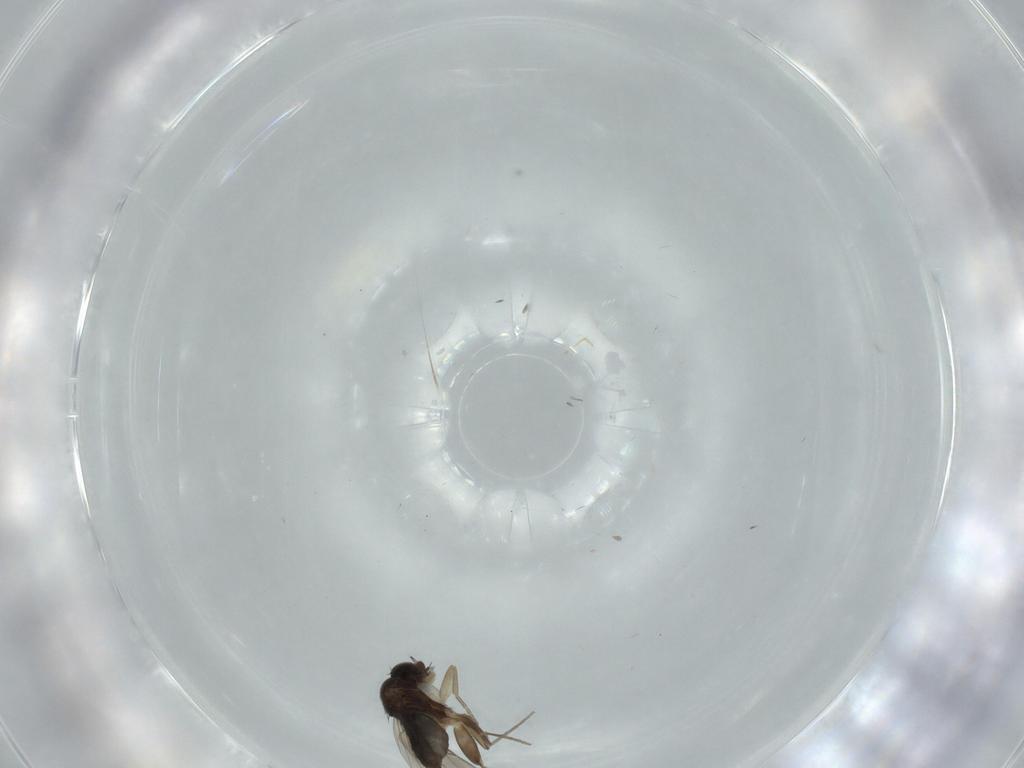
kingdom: Animalia
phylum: Arthropoda
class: Insecta
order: Diptera
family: Phoridae
